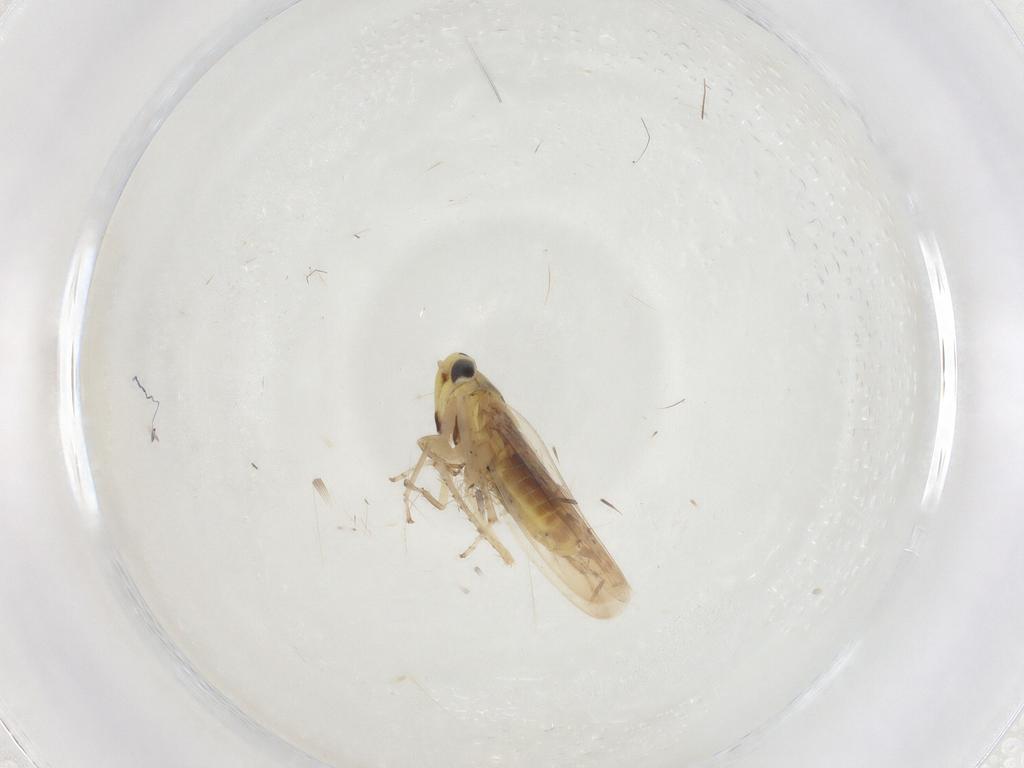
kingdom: Animalia
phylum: Arthropoda
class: Insecta
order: Hemiptera
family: Cicadellidae
